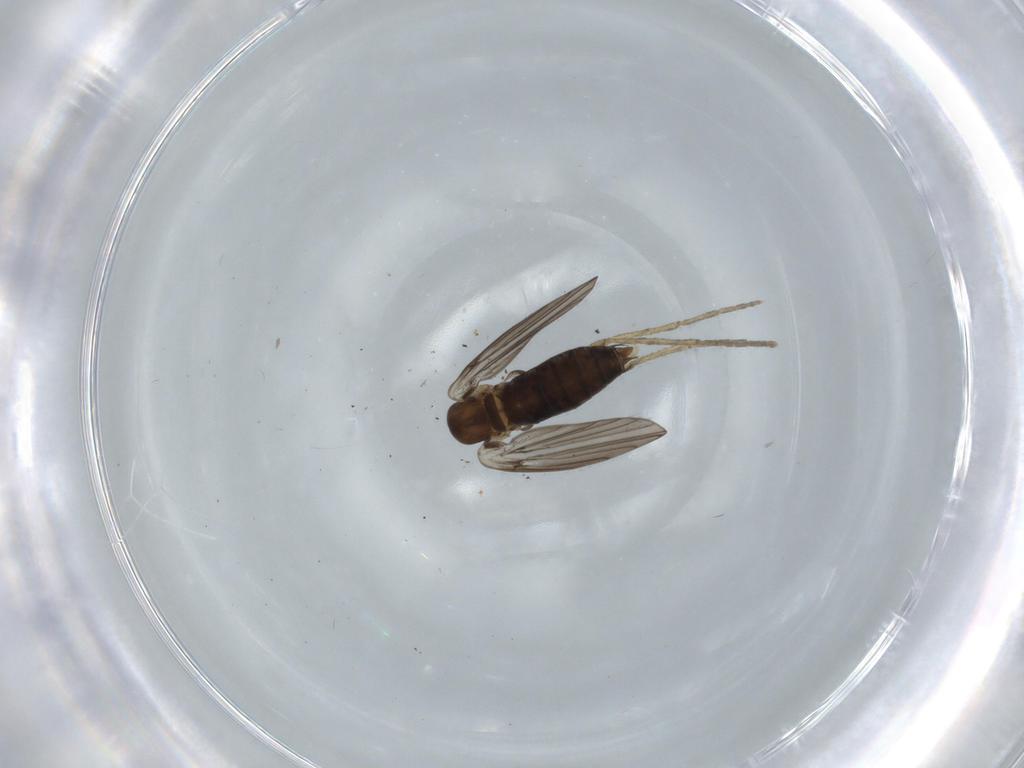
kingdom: Animalia
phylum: Arthropoda
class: Insecta
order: Diptera
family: Psychodidae
